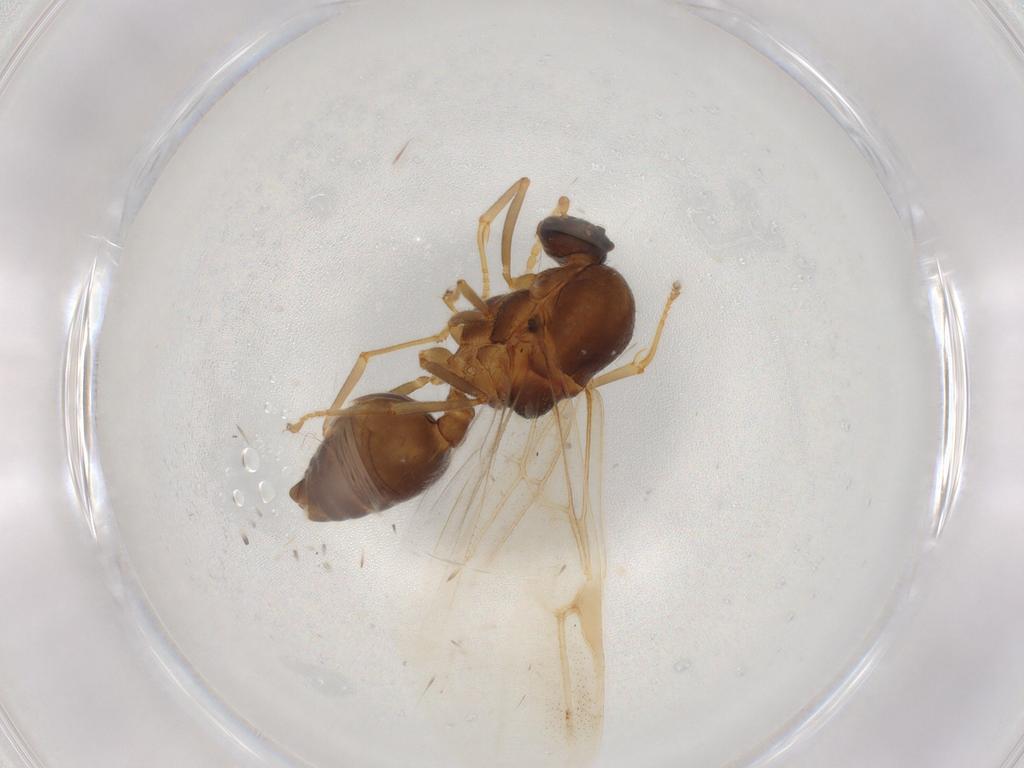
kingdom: Animalia
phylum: Arthropoda
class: Insecta
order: Hymenoptera
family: Formicidae
